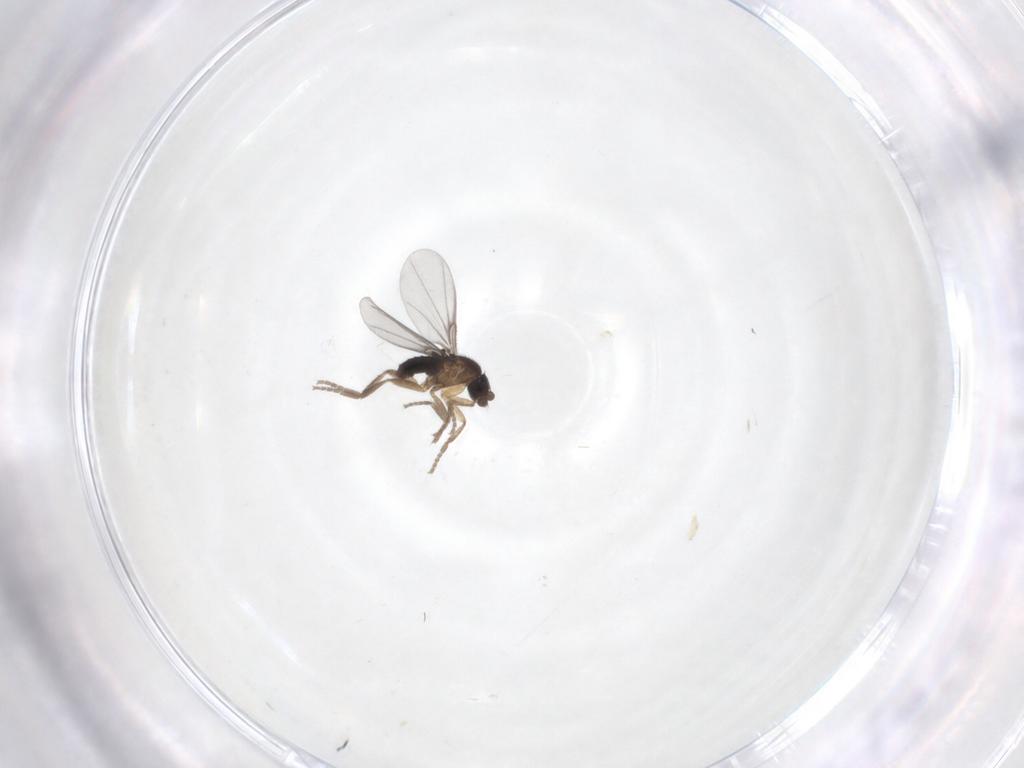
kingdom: Animalia
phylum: Arthropoda
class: Insecta
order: Diptera
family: Phoridae
